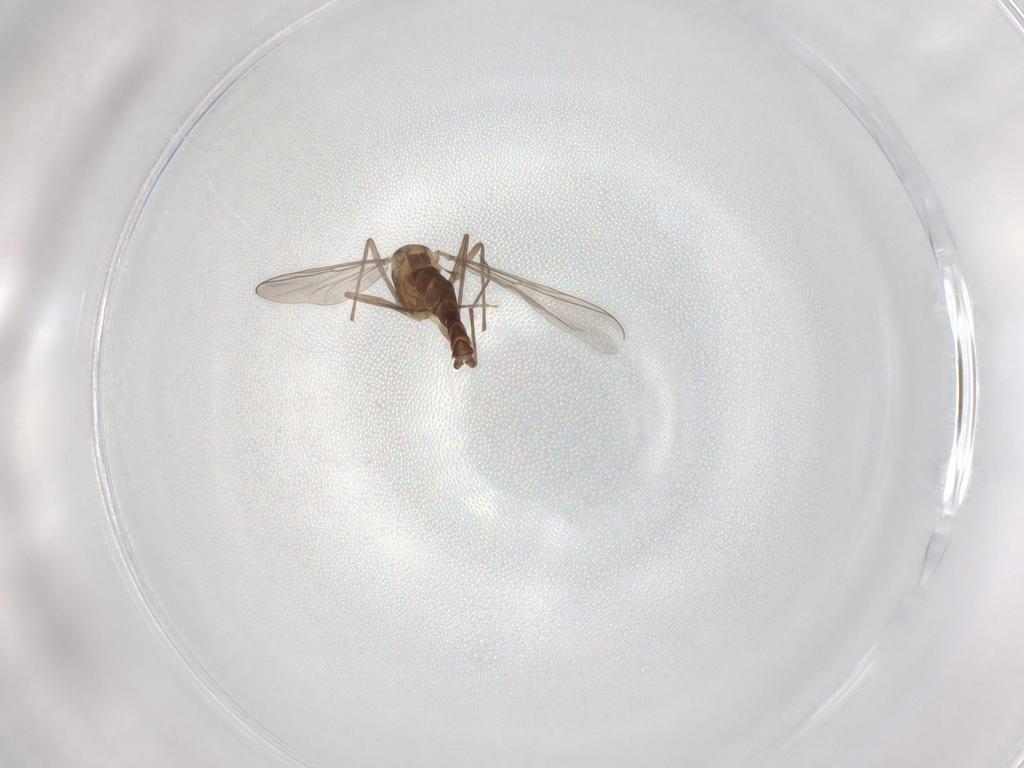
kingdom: Animalia
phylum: Arthropoda
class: Insecta
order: Diptera
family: Chironomidae
